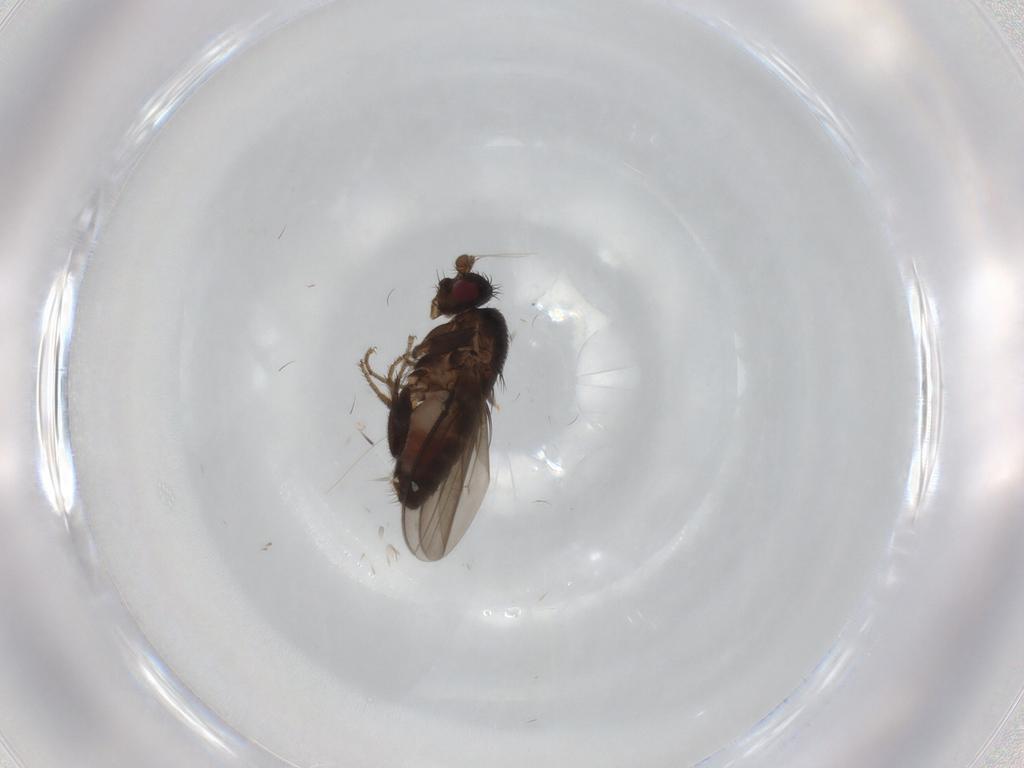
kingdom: Animalia
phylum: Arthropoda
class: Insecta
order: Diptera
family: Sphaeroceridae
